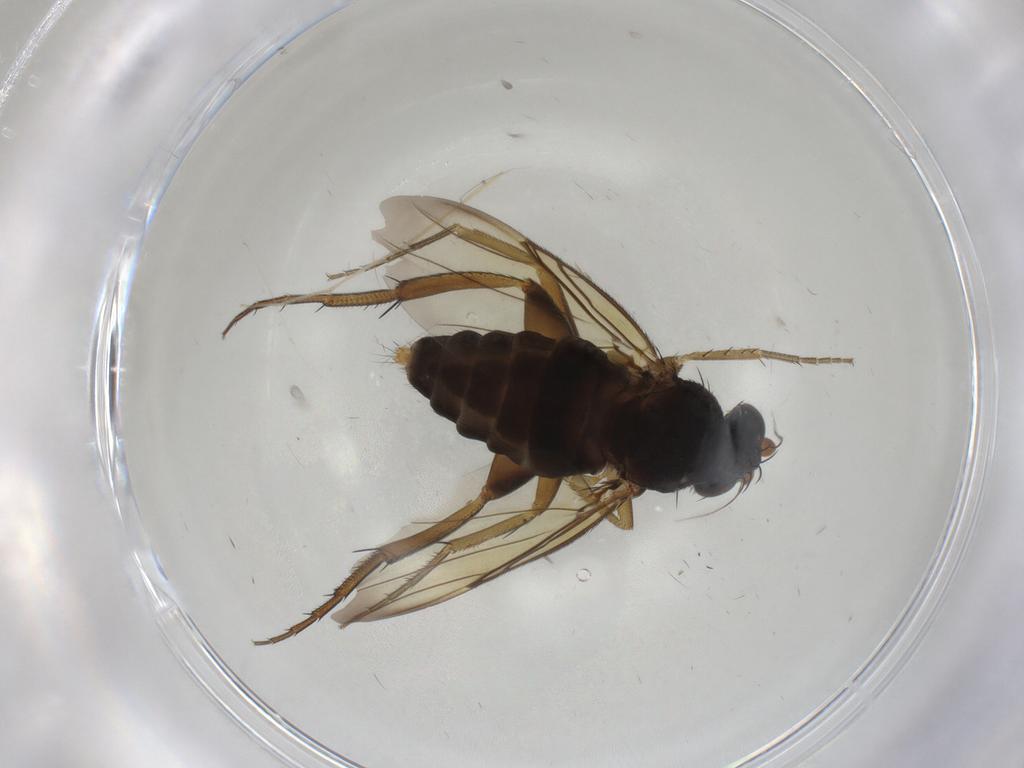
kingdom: Animalia
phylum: Arthropoda
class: Insecta
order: Diptera
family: Phoridae
